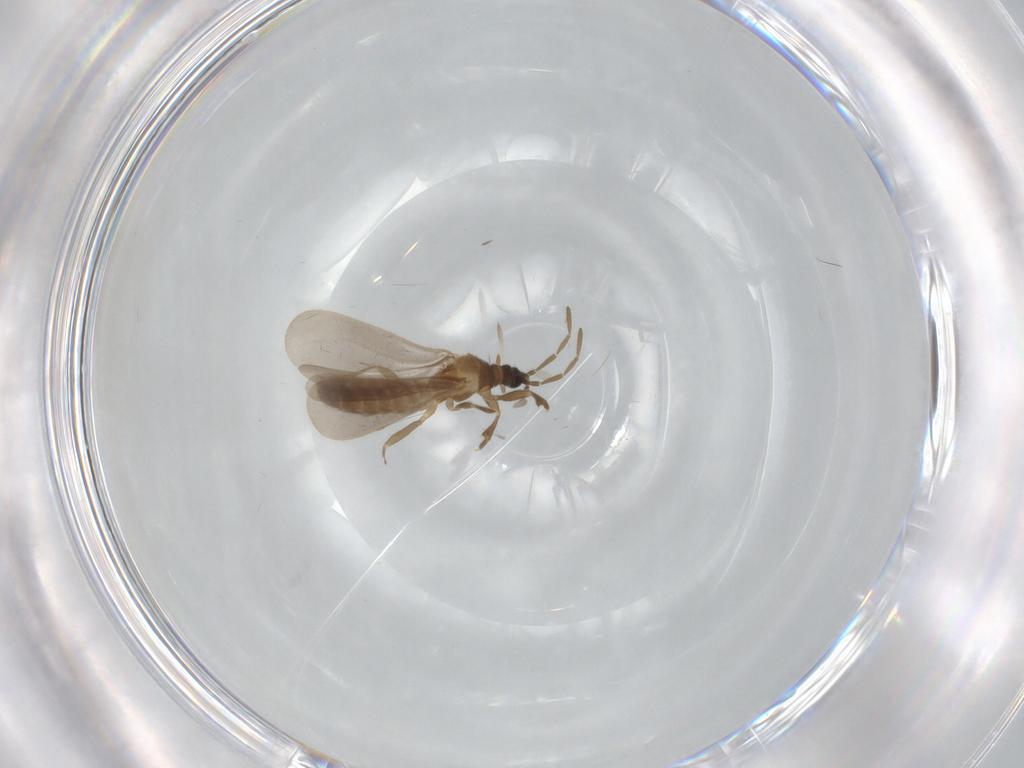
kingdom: Animalia
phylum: Arthropoda
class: Insecta
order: Hemiptera
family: Enicocephalidae
